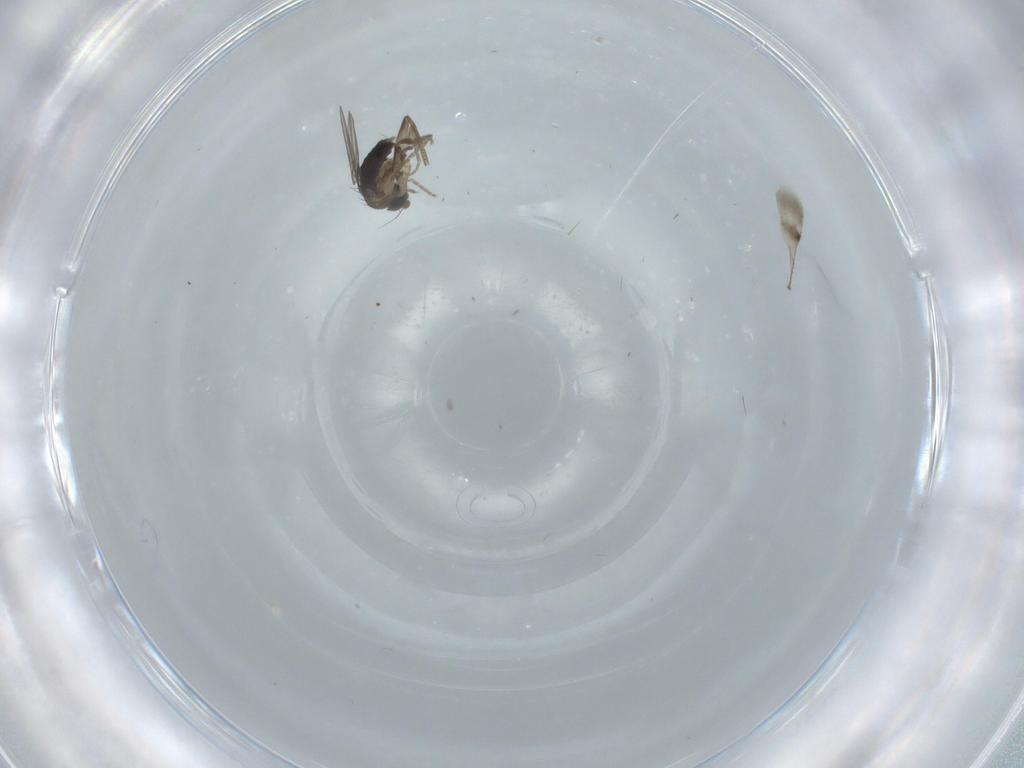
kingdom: Animalia
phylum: Arthropoda
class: Insecta
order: Diptera
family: Phoridae
